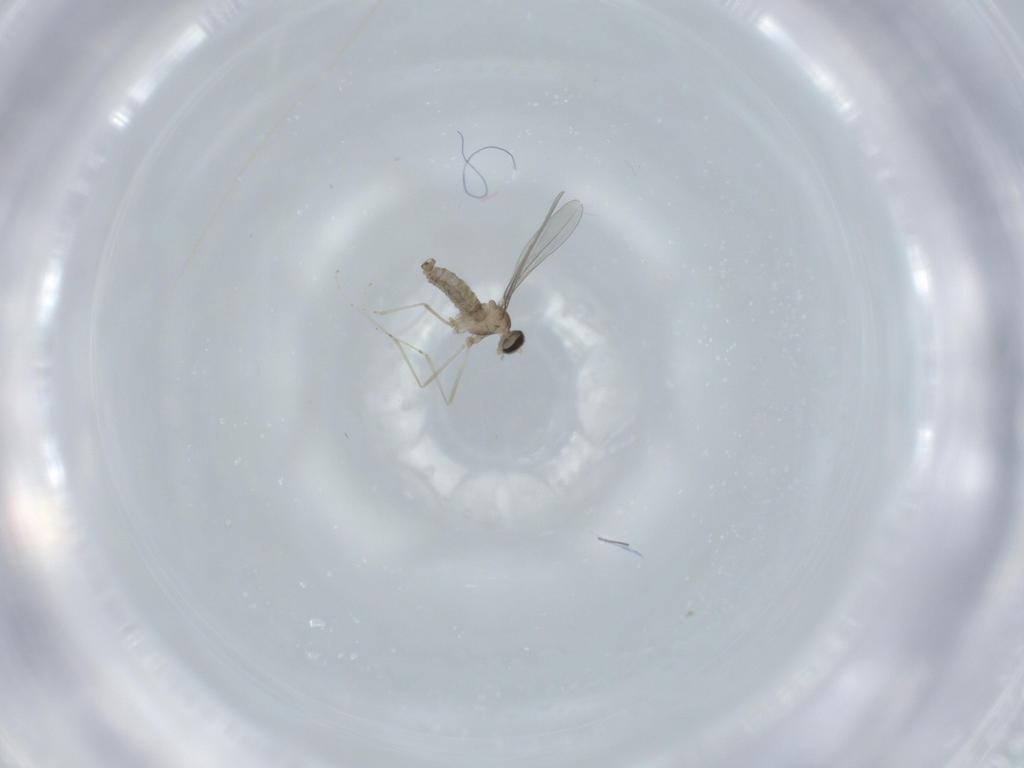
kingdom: Animalia
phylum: Arthropoda
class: Insecta
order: Diptera
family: Cecidomyiidae
